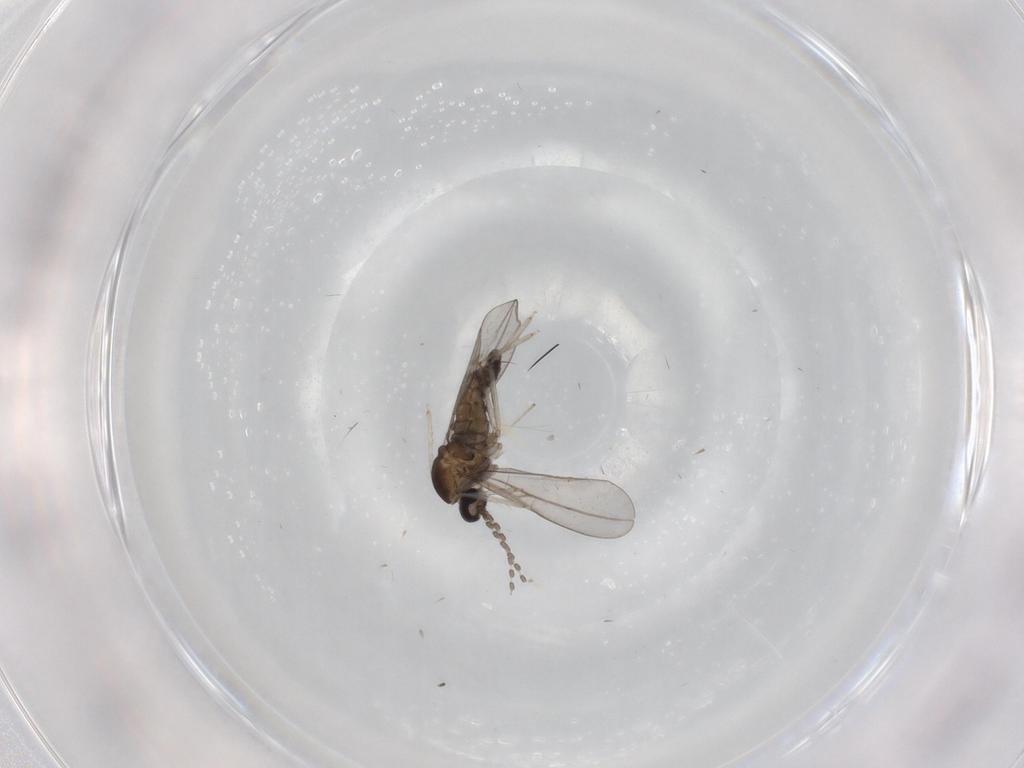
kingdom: Animalia
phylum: Arthropoda
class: Insecta
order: Diptera
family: Cecidomyiidae
